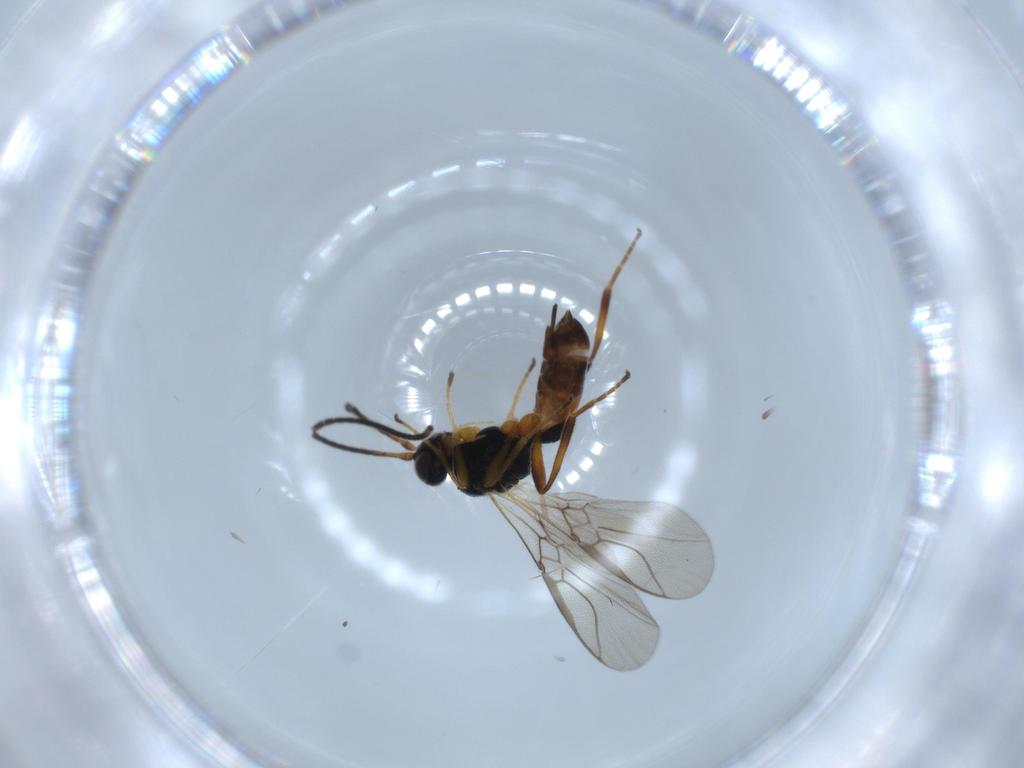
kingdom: Animalia
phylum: Arthropoda
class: Insecta
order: Hymenoptera
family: Braconidae
